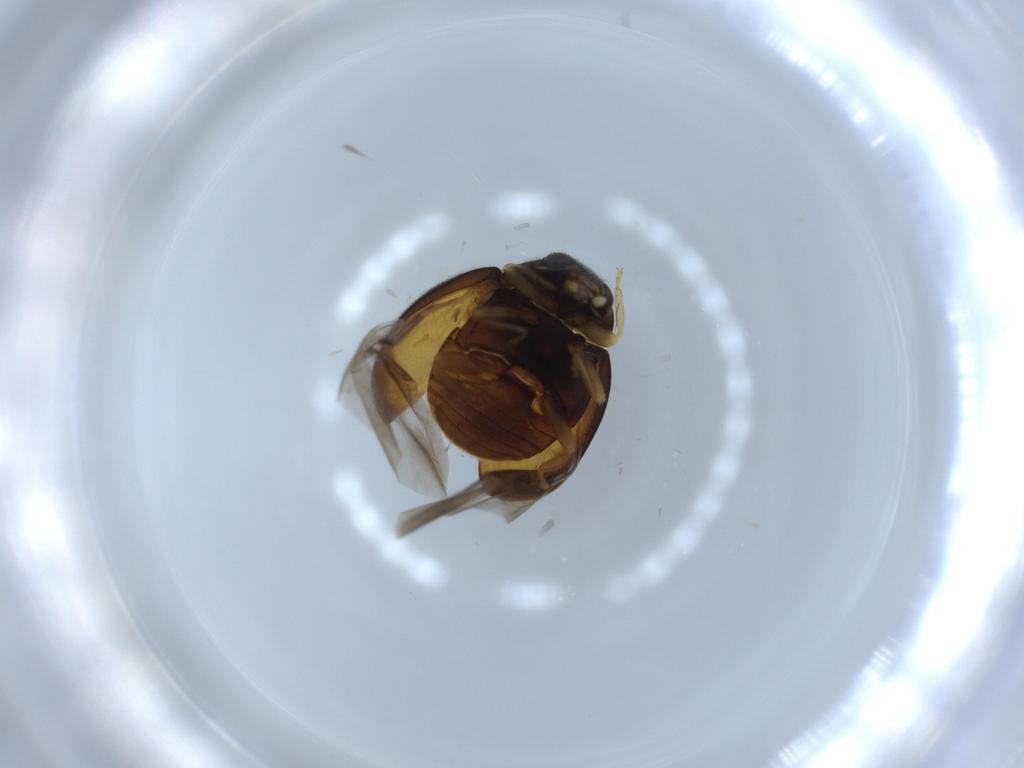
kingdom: Animalia
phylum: Arthropoda
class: Insecta
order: Coleoptera
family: Coccinellidae
